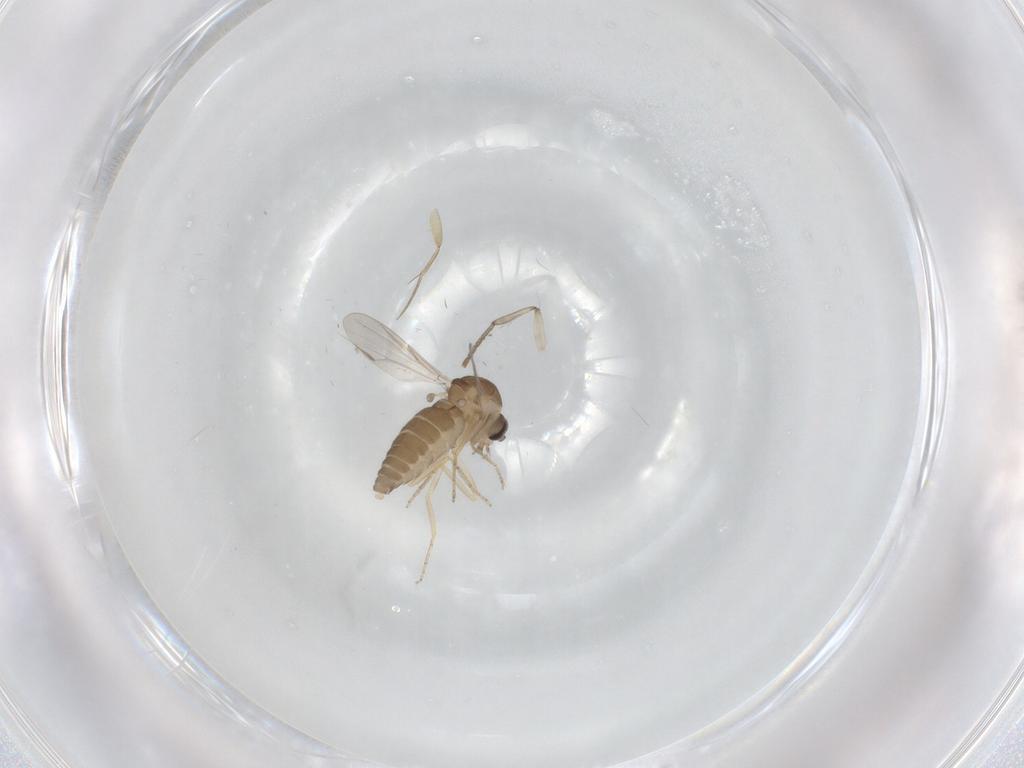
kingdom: Animalia
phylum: Arthropoda
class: Insecta
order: Diptera
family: Ceratopogonidae
